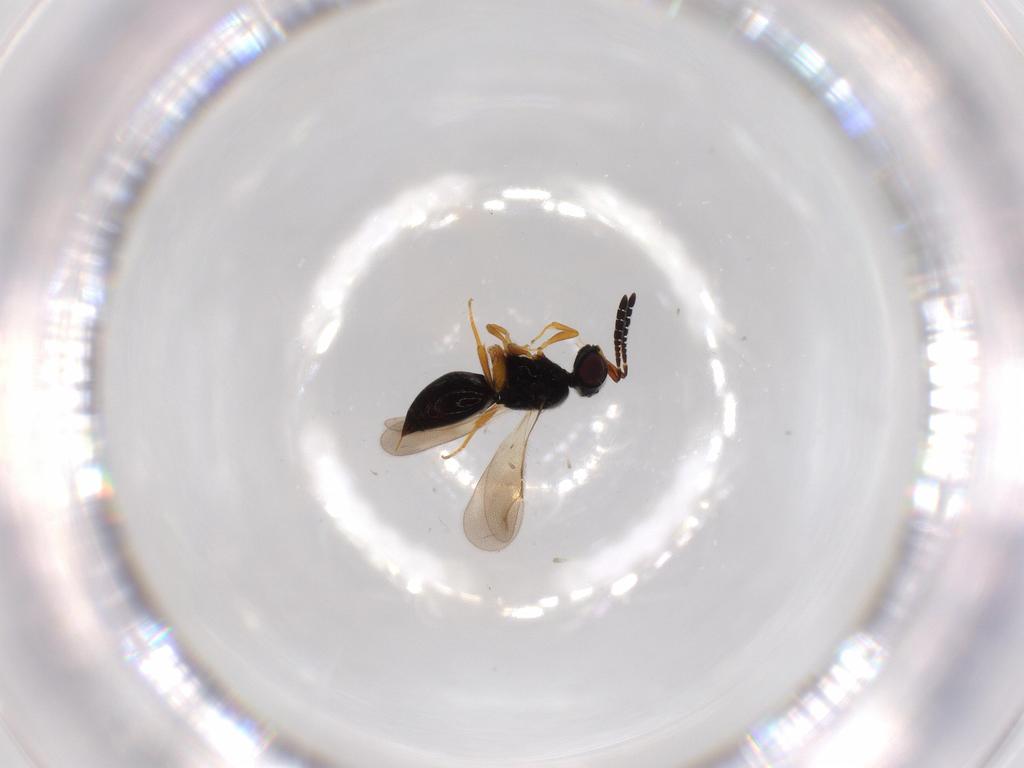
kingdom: Animalia
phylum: Arthropoda
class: Insecta
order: Hymenoptera
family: Ceraphronidae
